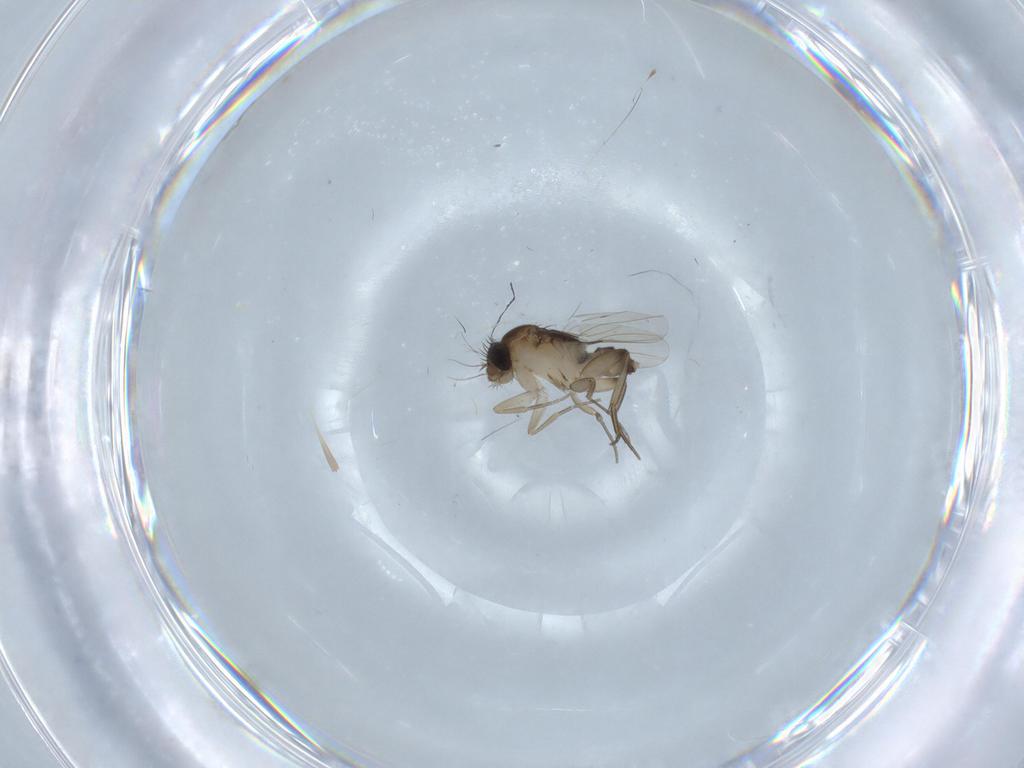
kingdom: Animalia
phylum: Arthropoda
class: Insecta
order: Diptera
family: Phoridae
